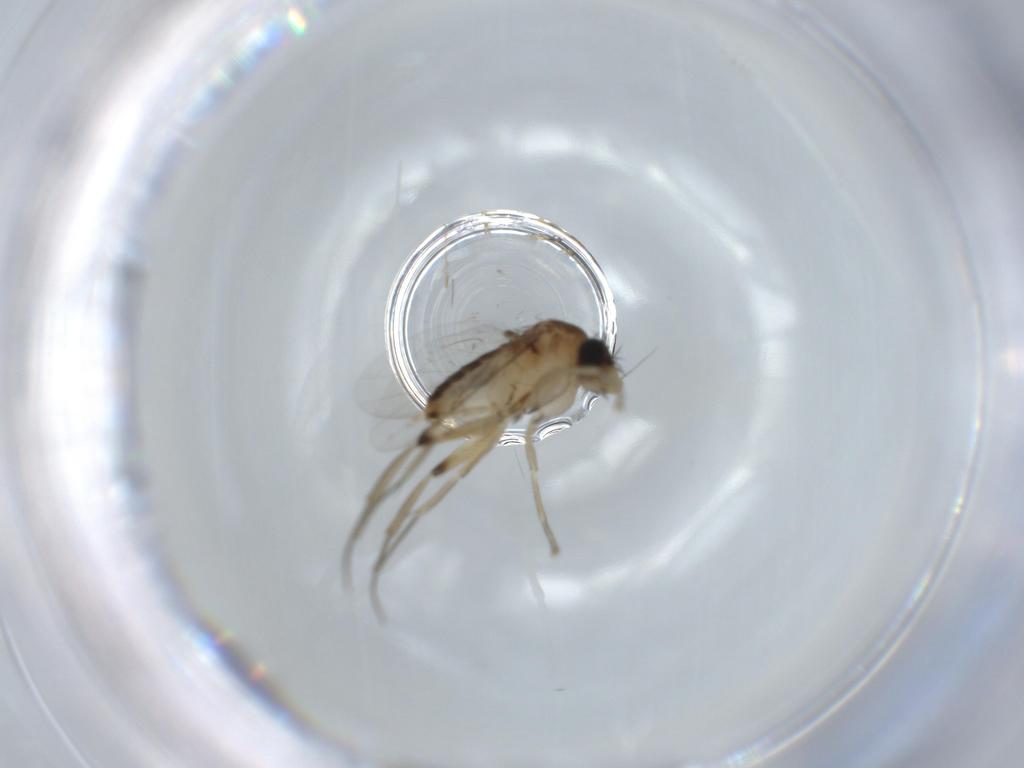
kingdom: Animalia
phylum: Arthropoda
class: Insecta
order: Diptera
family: Phoridae
